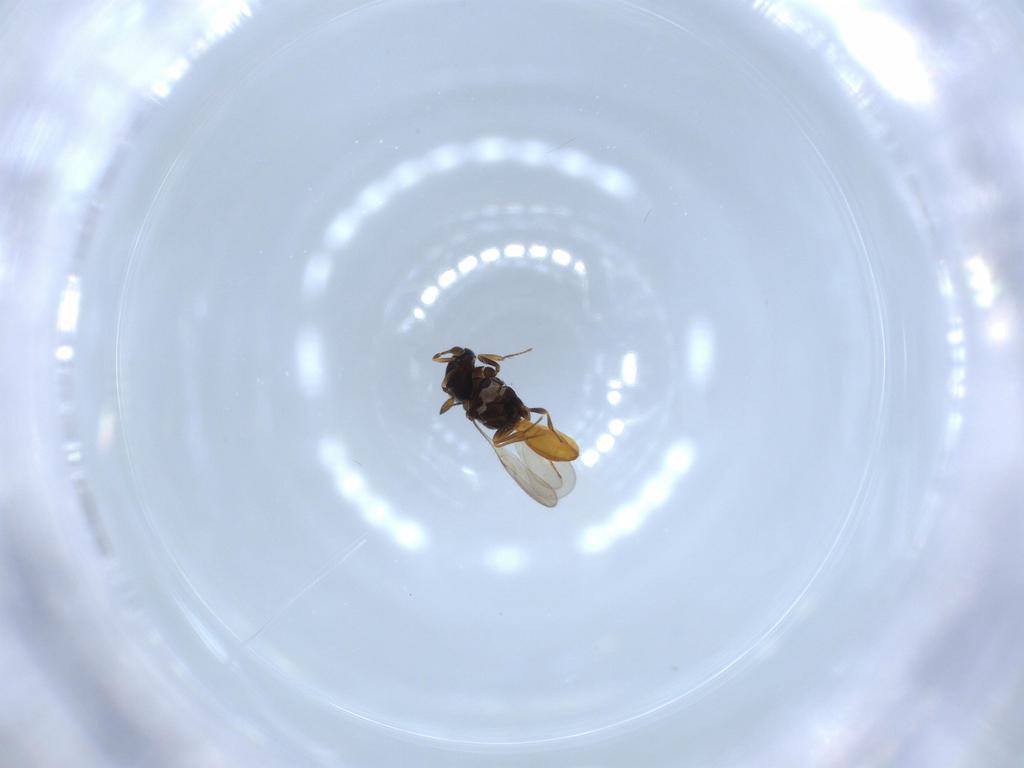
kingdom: Animalia
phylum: Arthropoda
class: Insecta
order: Hymenoptera
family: Scelionidae
